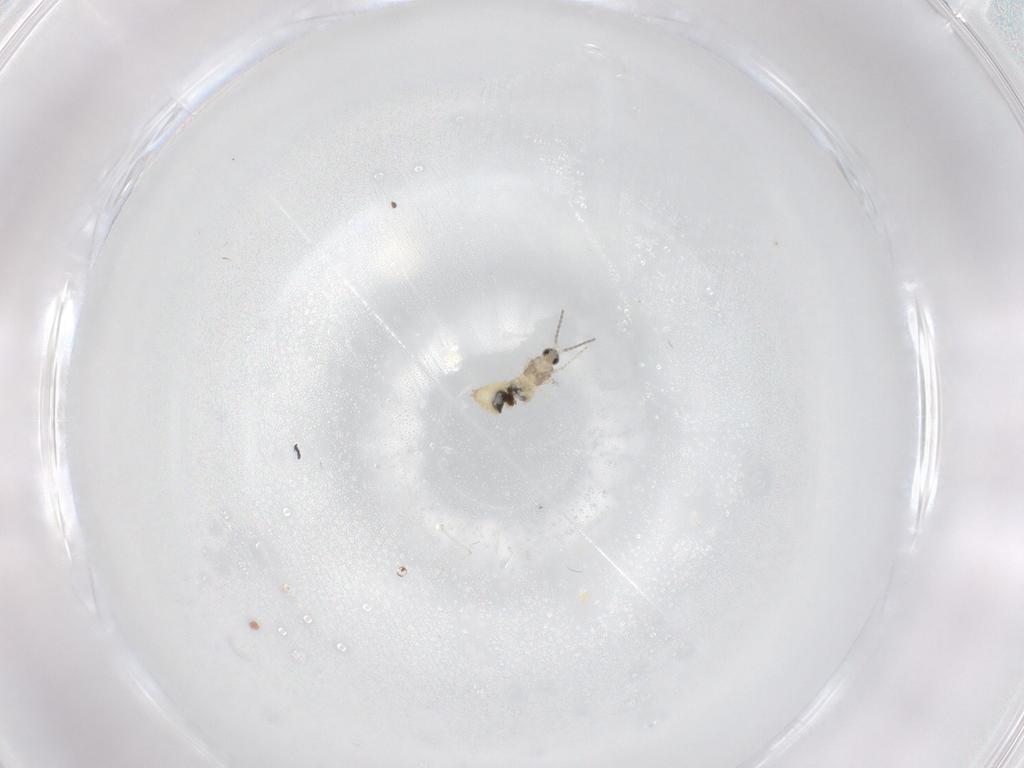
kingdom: Animalia
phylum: Arthropoda
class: Insecta
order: Diptera
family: Cecidomyiidae
